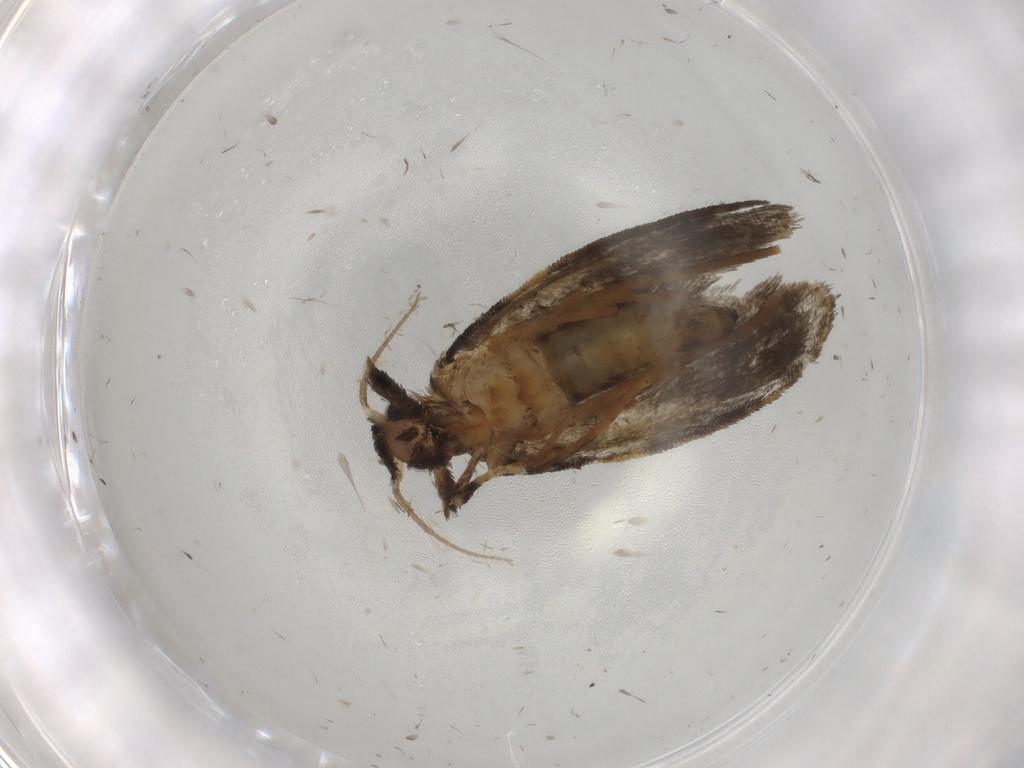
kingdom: Animalia
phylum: Arthropoda
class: Insecta
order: Lepidoptera
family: Psychidae
